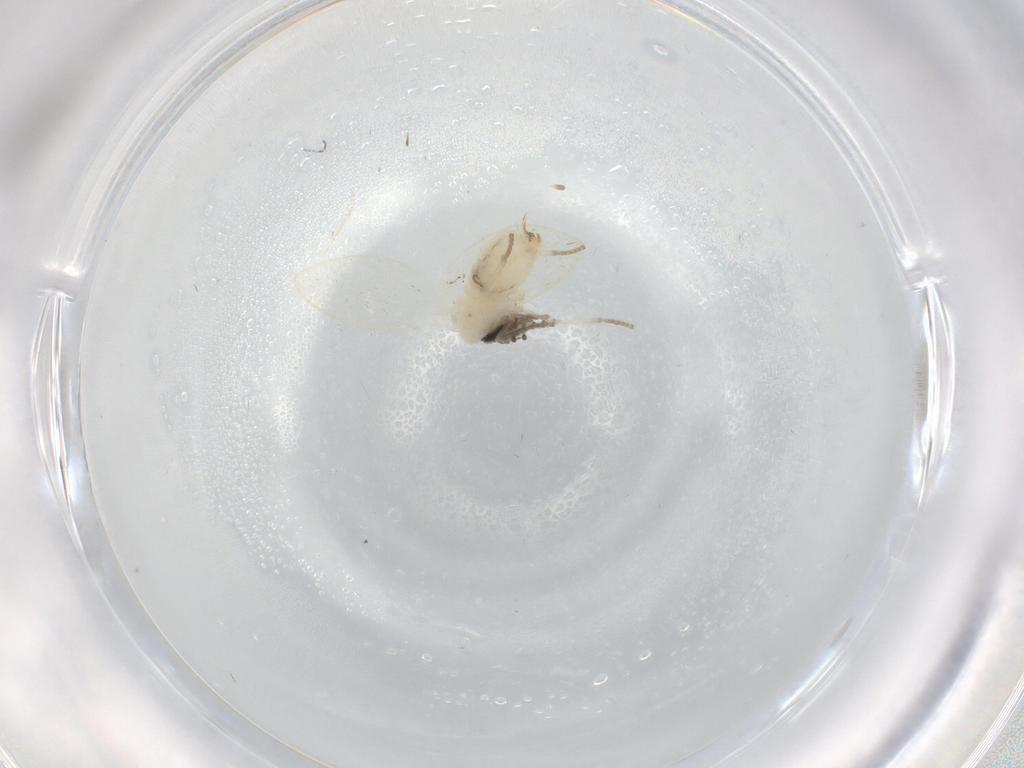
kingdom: Animalia
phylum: Arthropoda
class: Insecta
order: Diptera
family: Psychodidae
